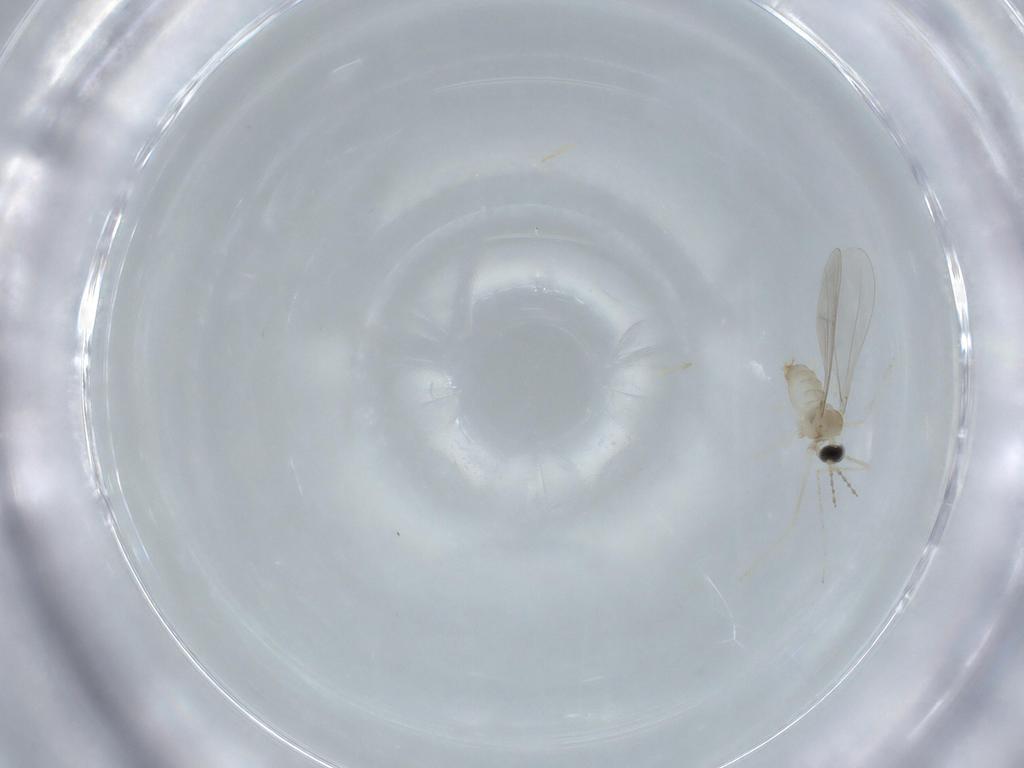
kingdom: Animalia
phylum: Arthropoda
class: Insecta
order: Diptera
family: Cecidomyiidae
